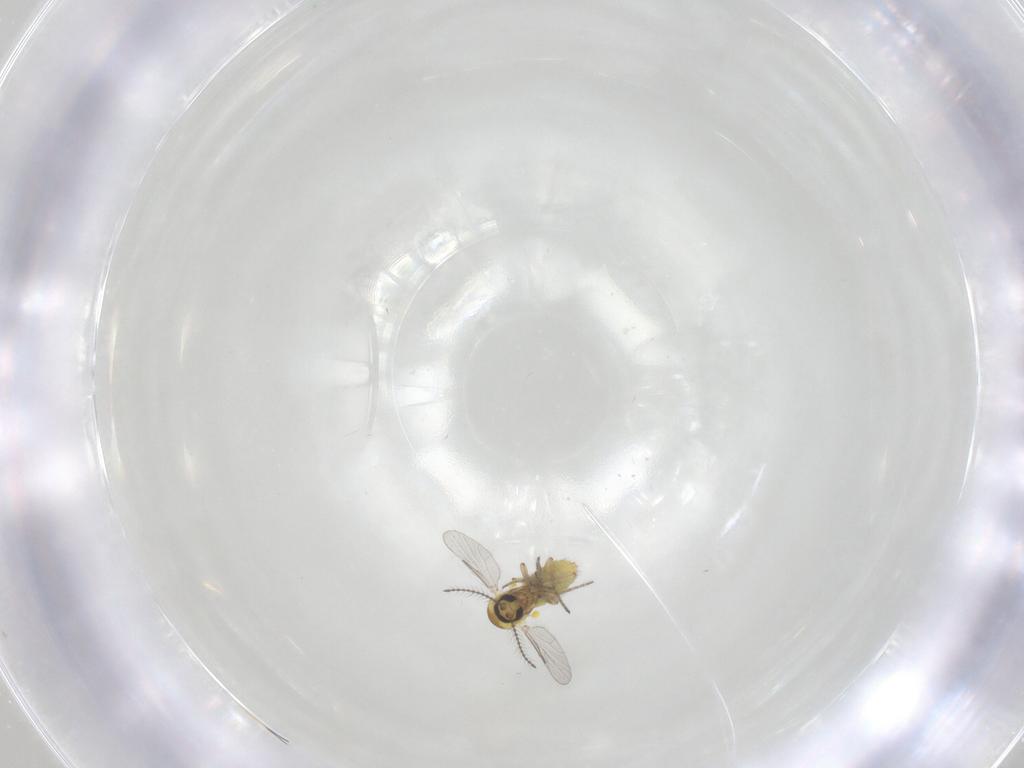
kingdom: Animalia
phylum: Arthropoda
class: Insecta
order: Diptera
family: Ceratopogonidae
